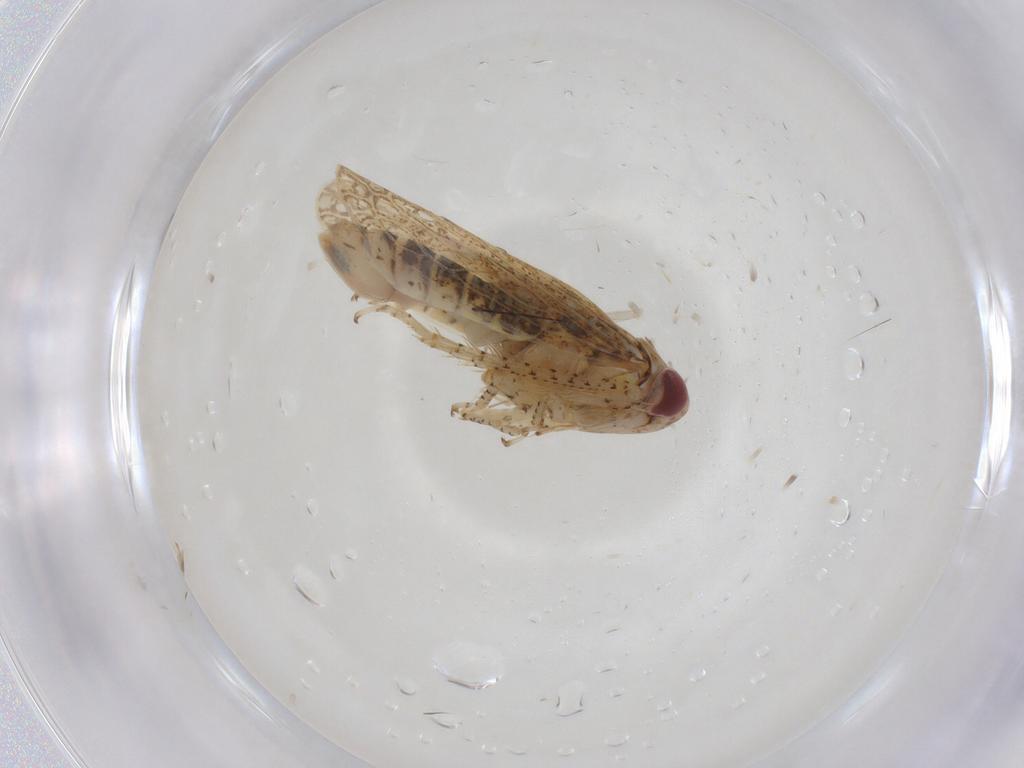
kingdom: Animalia
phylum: Arthropoda
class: Insecta
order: Hemiptera
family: Cicadellidae
